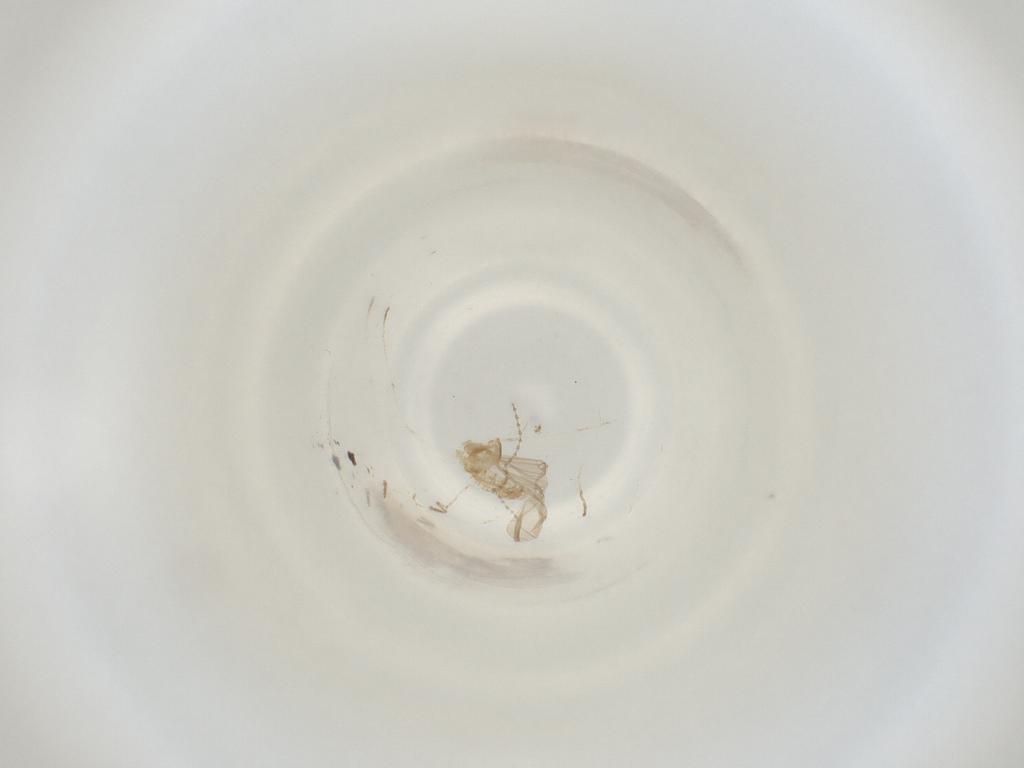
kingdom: Animalia
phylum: Arthropoda
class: Insecta
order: Diptera
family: Cecidomyiidae
